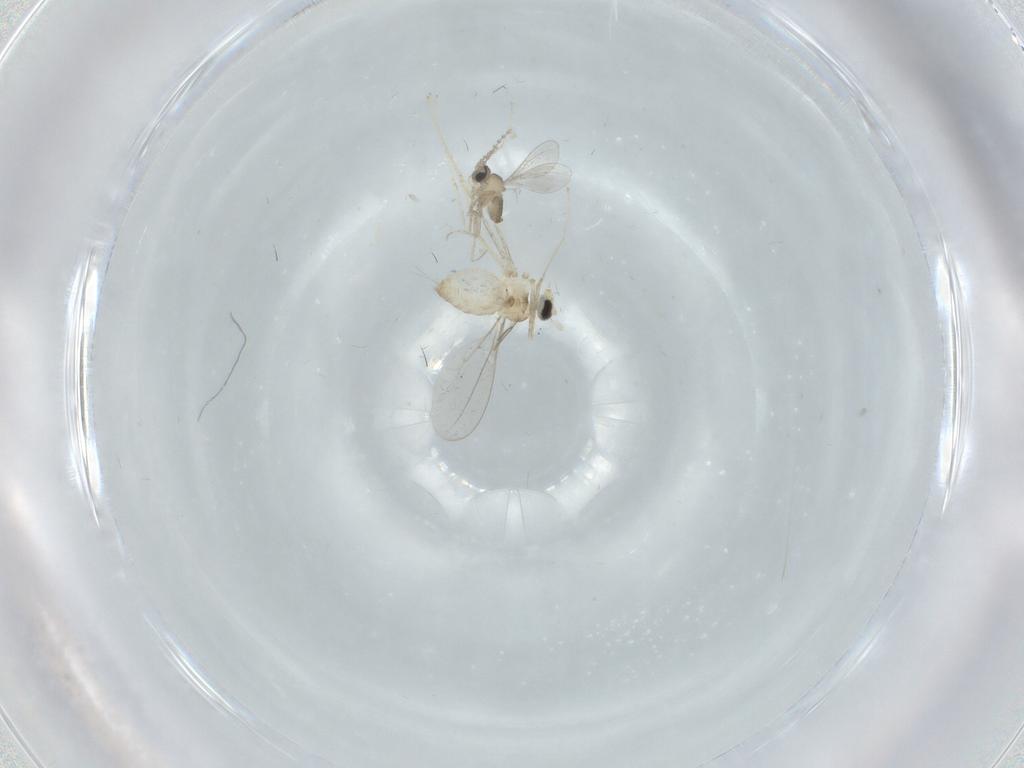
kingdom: Animalia
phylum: Arthropoda
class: Insecta
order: Diptera
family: Cecidomyiidae
